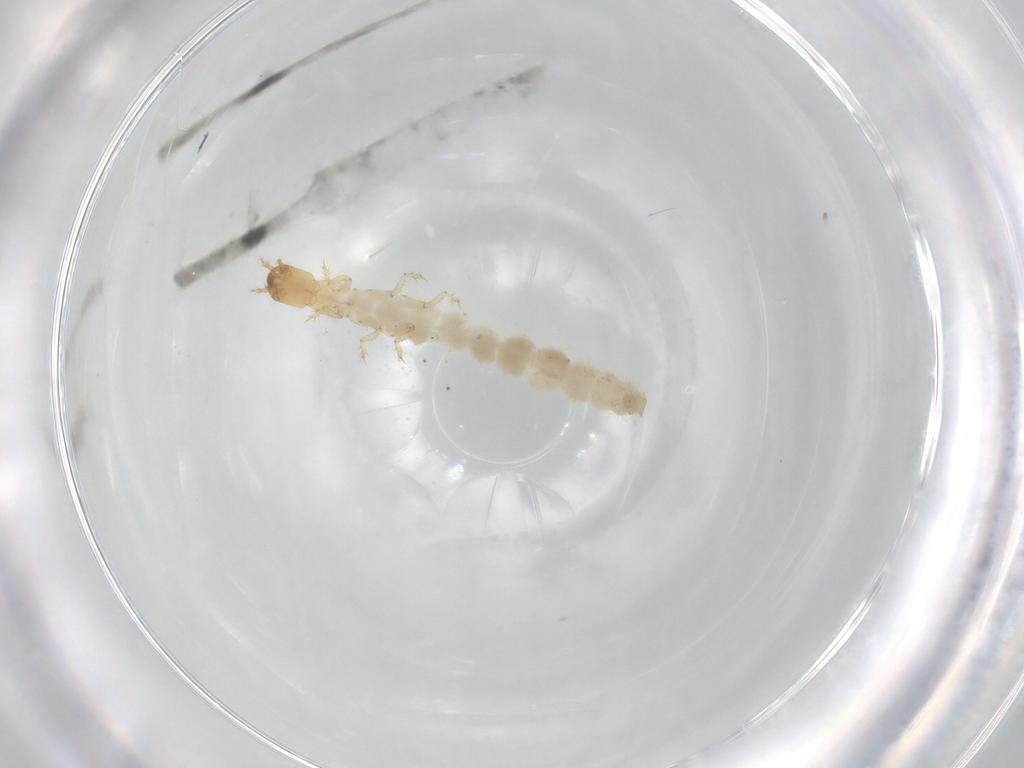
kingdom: Animalia
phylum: Arthropoda
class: Insecta
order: Coleoptera
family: Staphylinidae
